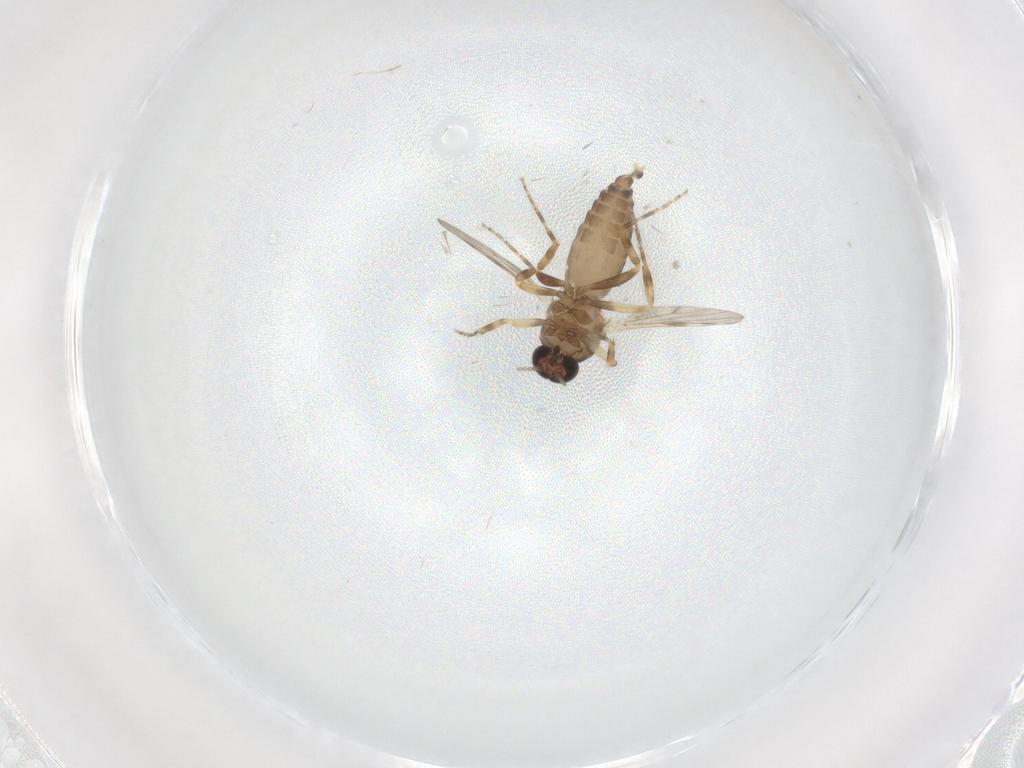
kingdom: Animalia
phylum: Arthropoda
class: Insecta
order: Diptera
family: Ceratopogonidae
